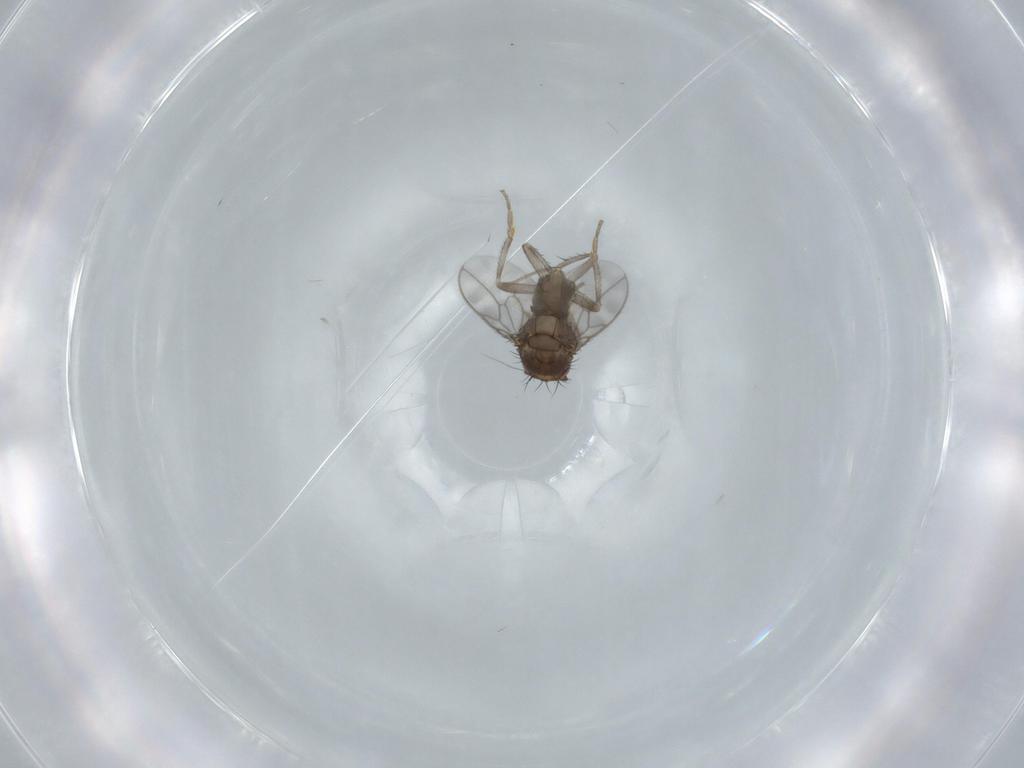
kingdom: Animalia
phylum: Arthropoda
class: Insecta
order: Diptera
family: Sphaeroceridae
